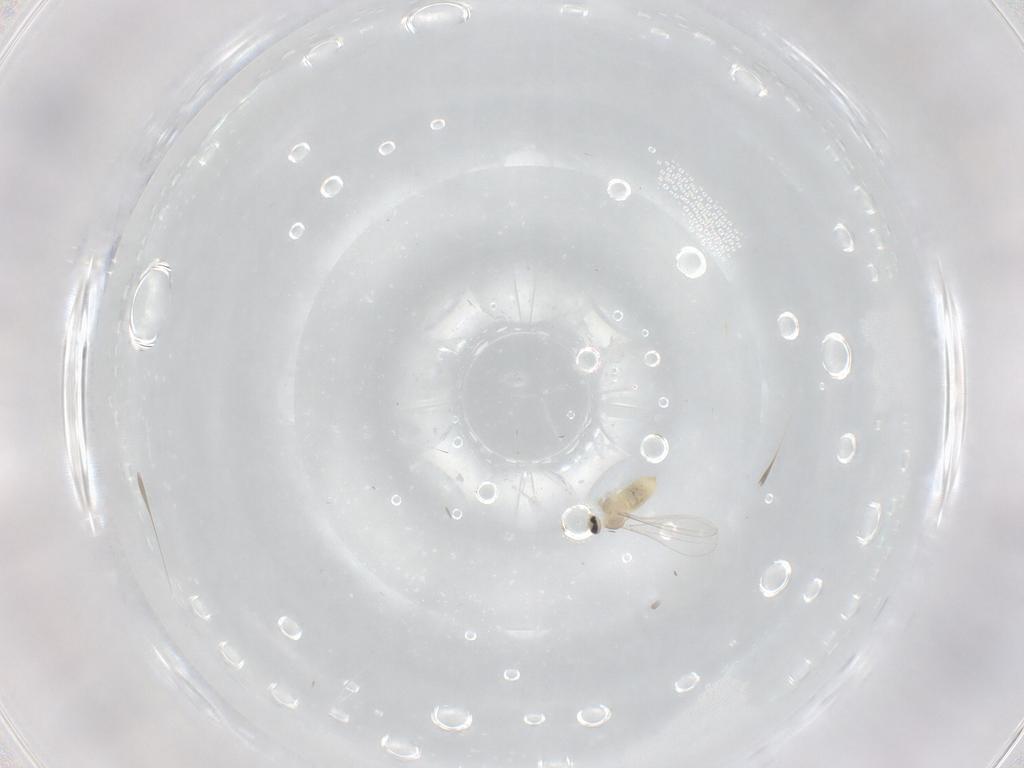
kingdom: Animalia
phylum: Arthropoda
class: Insecta
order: Diptera
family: Cecidomyiidae
